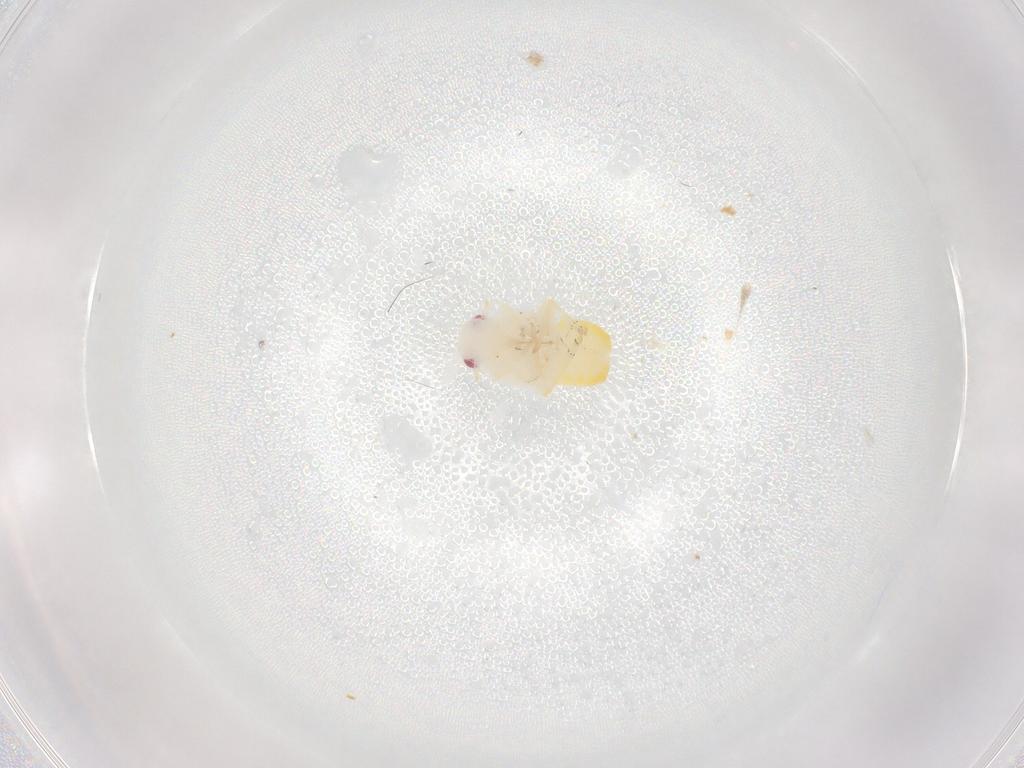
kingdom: Animalia
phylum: Arthropoda
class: Insecta
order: Hemiptera
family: Flatidae
